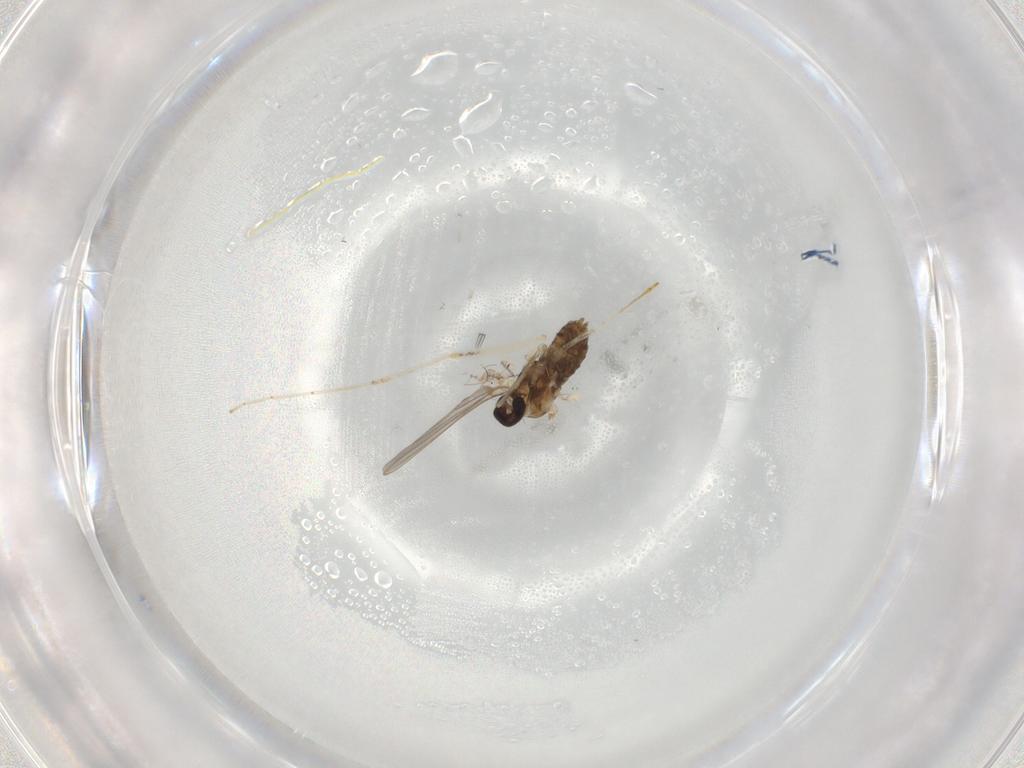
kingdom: Animalia
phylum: Arthropoda
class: Insecta
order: Diptera
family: Cecidomyiidae
